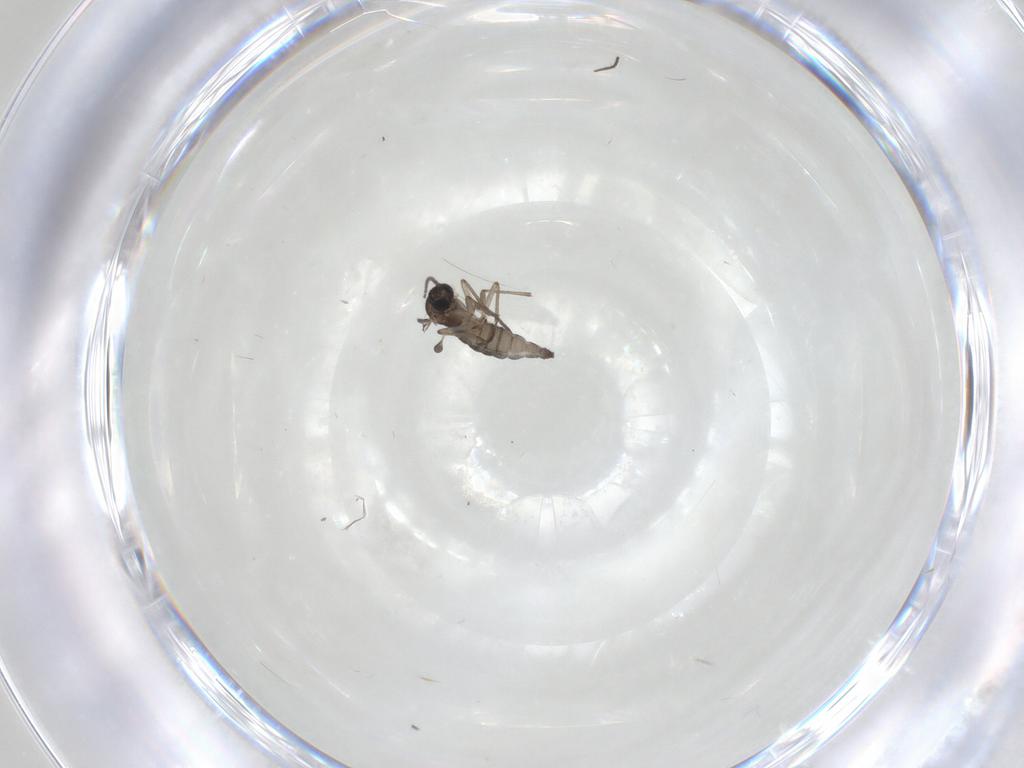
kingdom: Animalia
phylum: Arthropoda
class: Insecta
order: Diptera
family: Sciaridae
